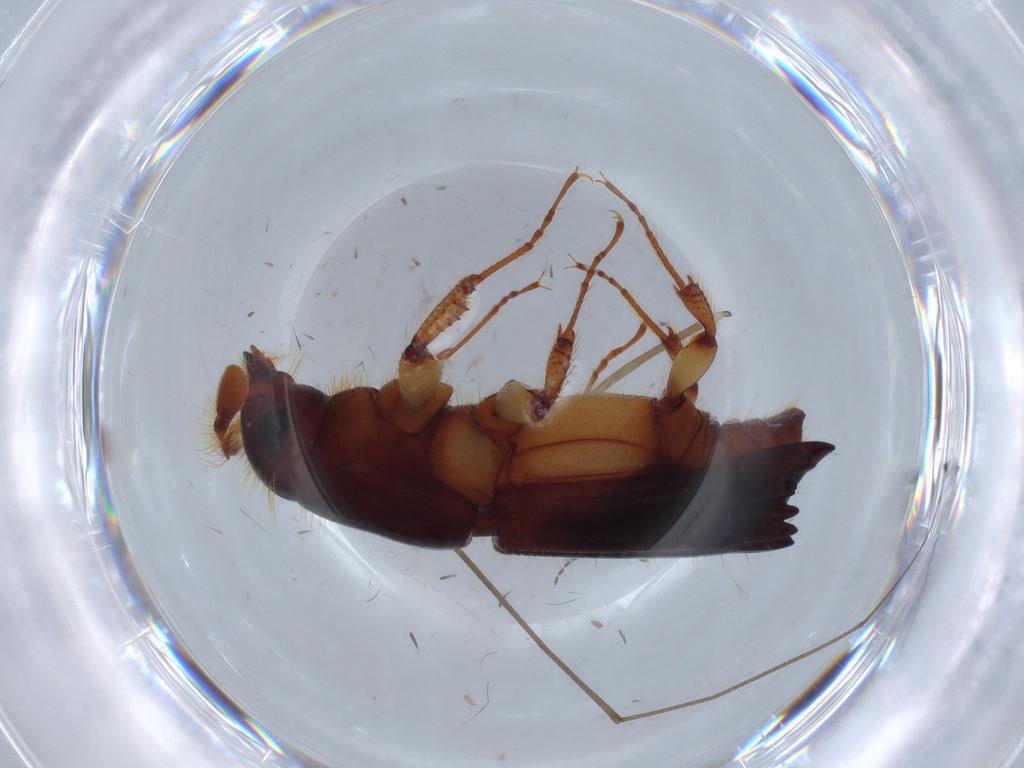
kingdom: Animalia
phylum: Arthropoda
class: Insecta
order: Coleoptera
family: Curculionidae
